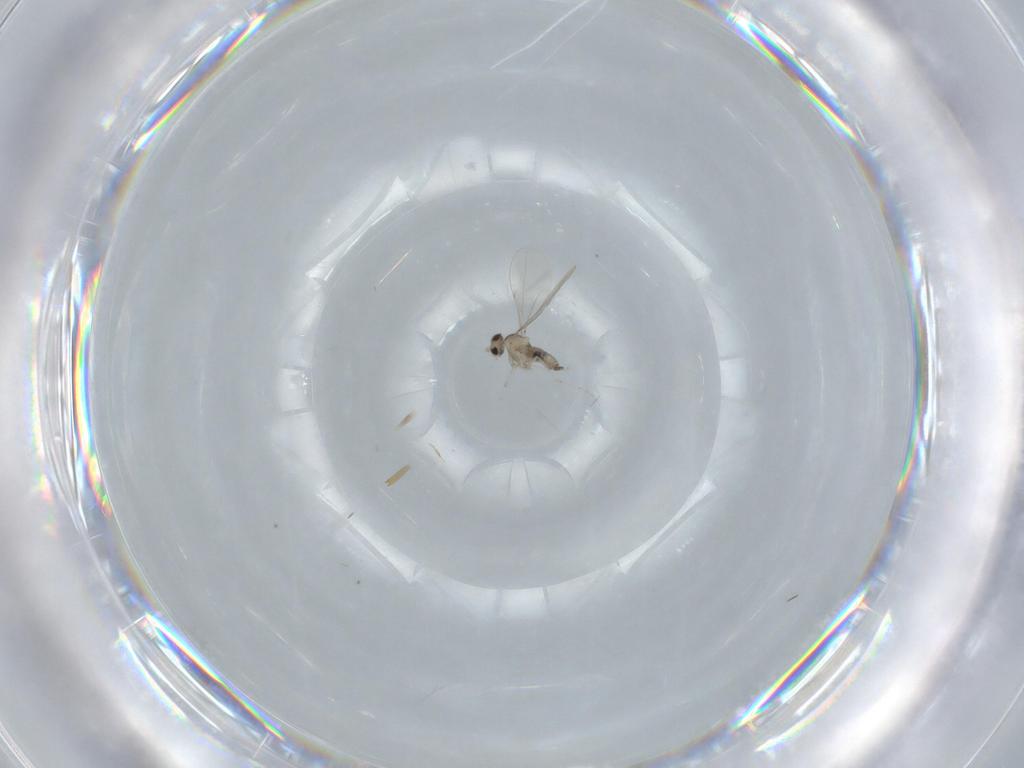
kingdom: Animalia
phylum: Arthropoda
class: Insecta
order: Diptera
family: Cecidomyiidae
